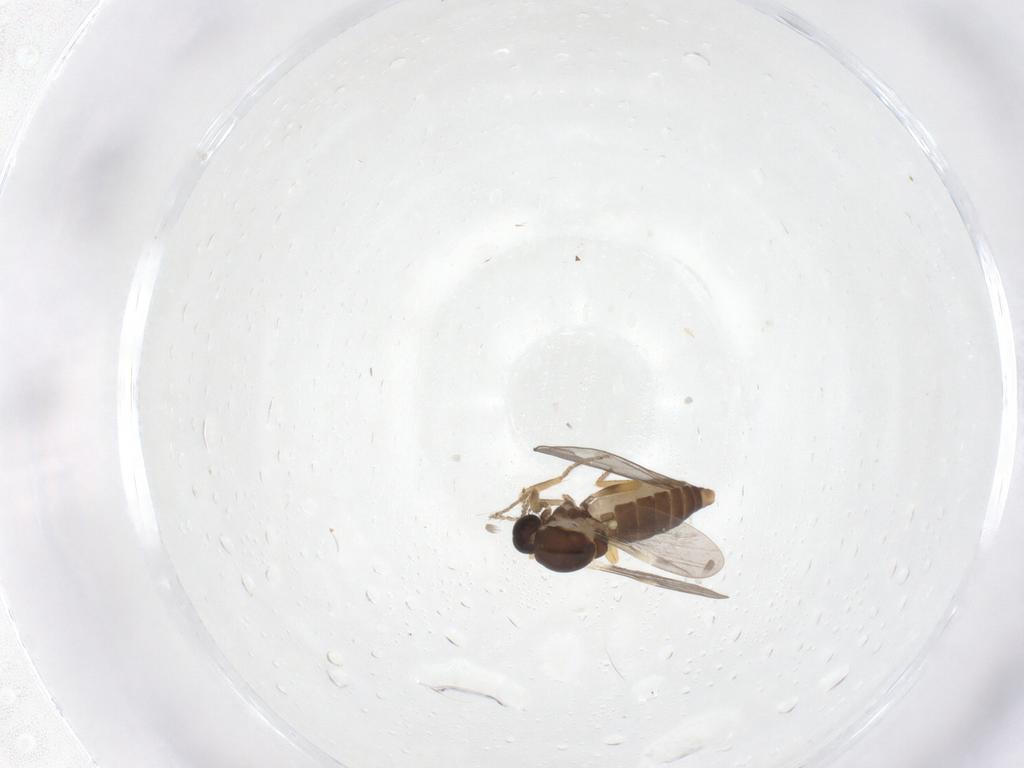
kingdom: Animalia
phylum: Arthropoda
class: Insecta
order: Diptera
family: Ceratopogonidae
